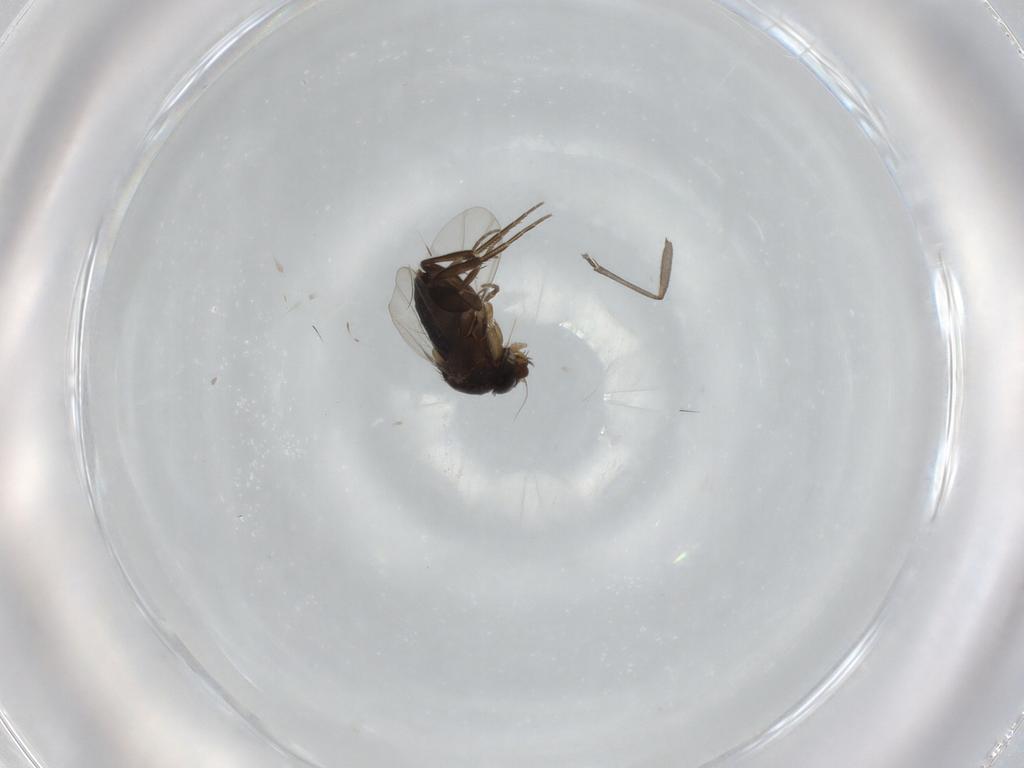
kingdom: Animalia
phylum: Arthropoda
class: Insecta
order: Diptera
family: Phoridae
